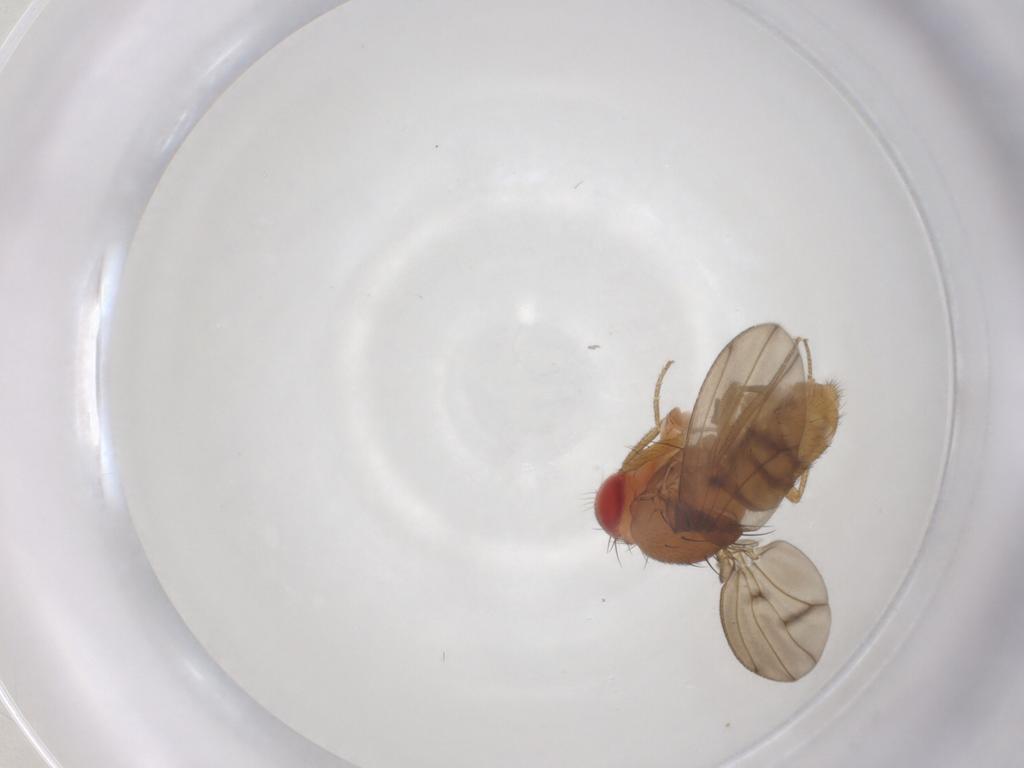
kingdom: Animalia
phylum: Arthropoda
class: Insecta
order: Diptera
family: Drosophilidae
